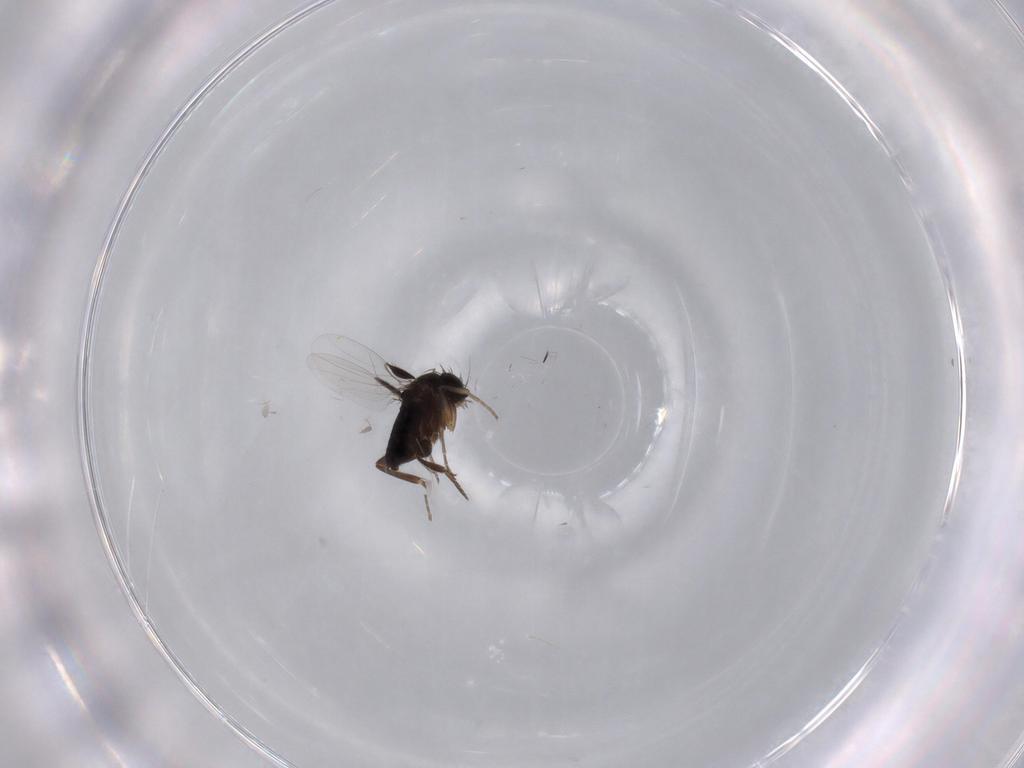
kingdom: Animalia
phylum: Arthropoda
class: Insecta
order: Diptera
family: Phoridae
